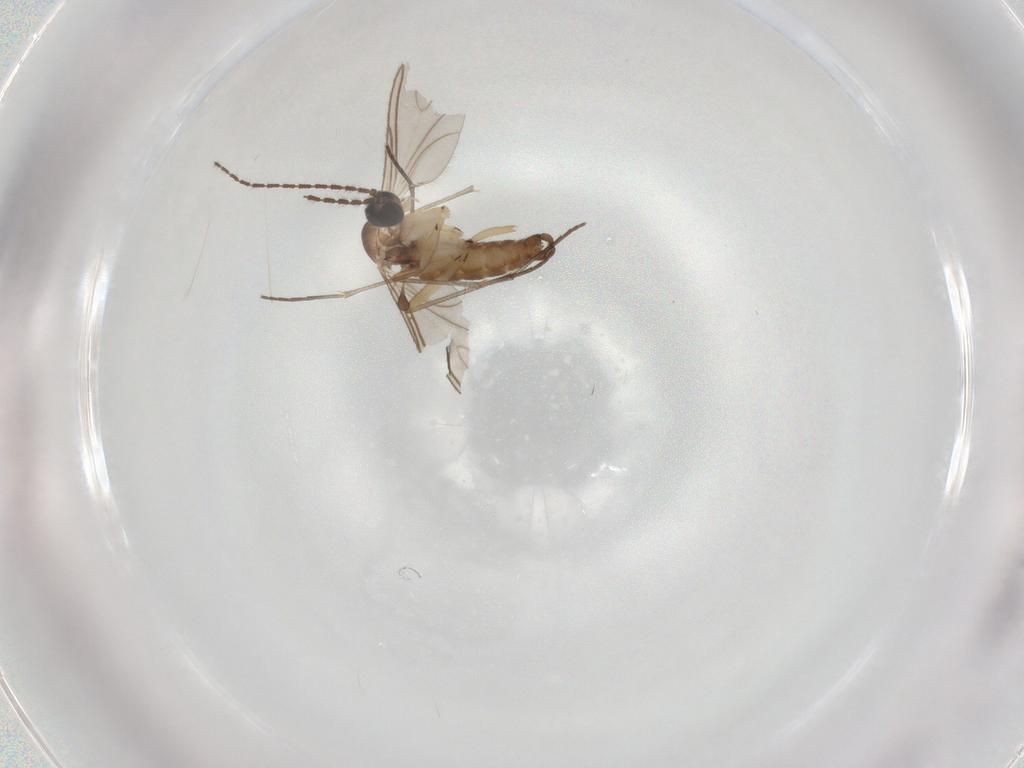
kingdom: Animalia
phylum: Arthropoda
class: Insecta
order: Diptera
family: Sciaridae
